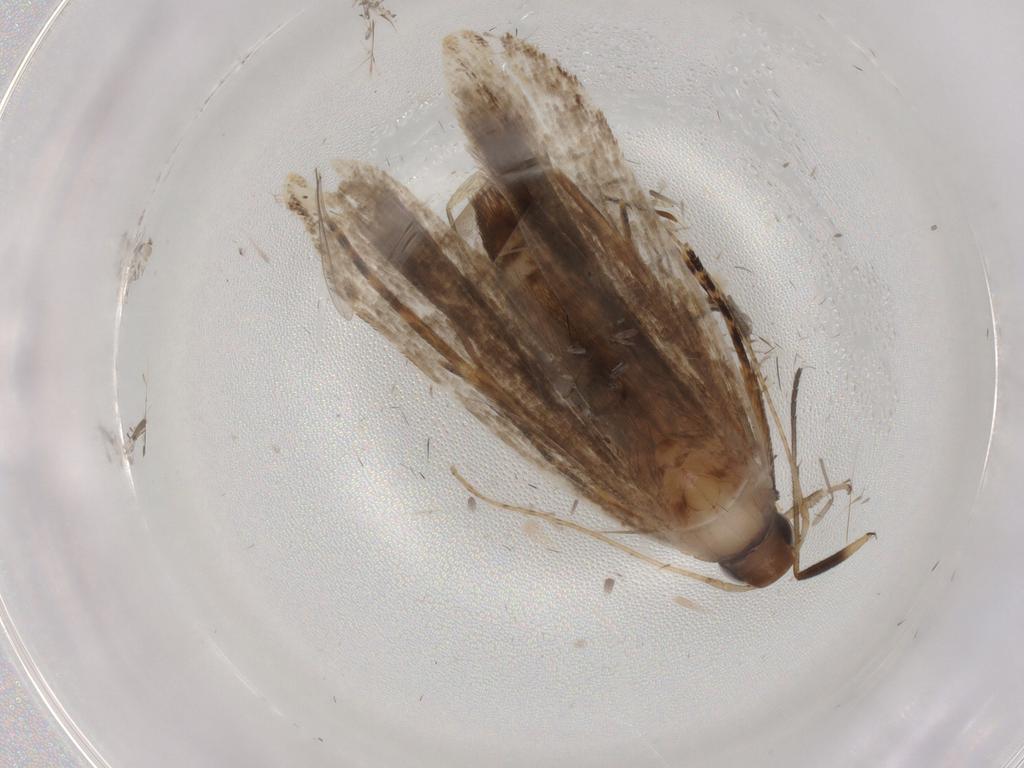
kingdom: Animalia
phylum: Arthropoda
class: Insecta
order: Lepidoptera
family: Gelechiidae
